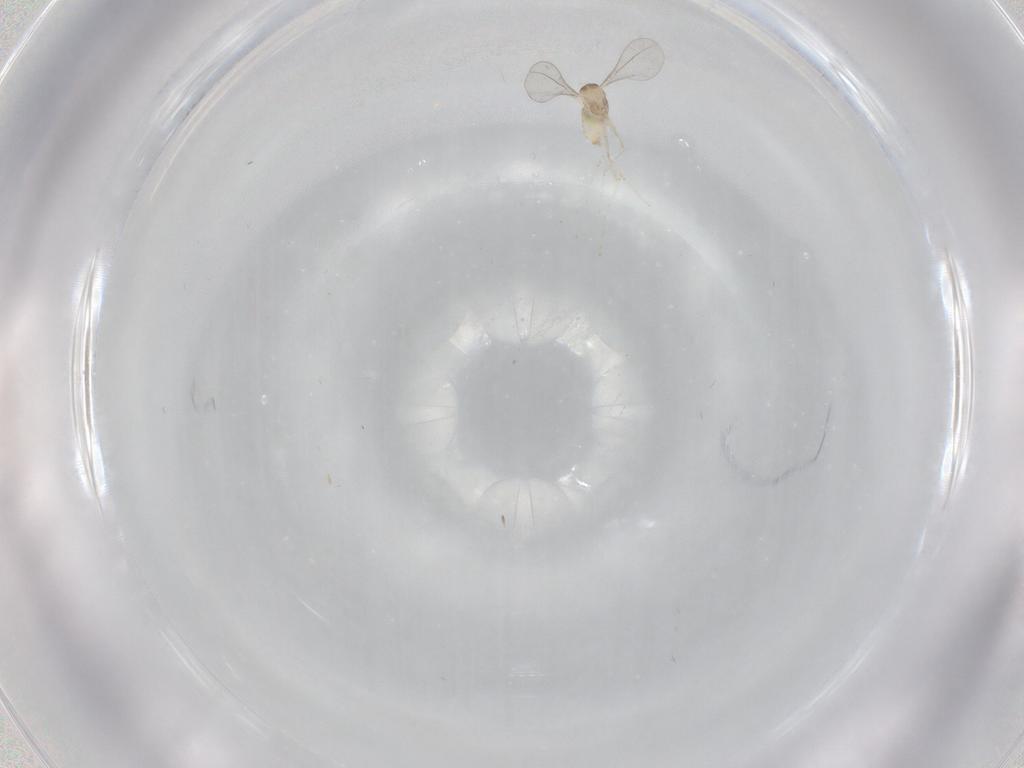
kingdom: Animalia
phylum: Arthropoda
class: Insecta
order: Diptera
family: Cecidomyiidae
